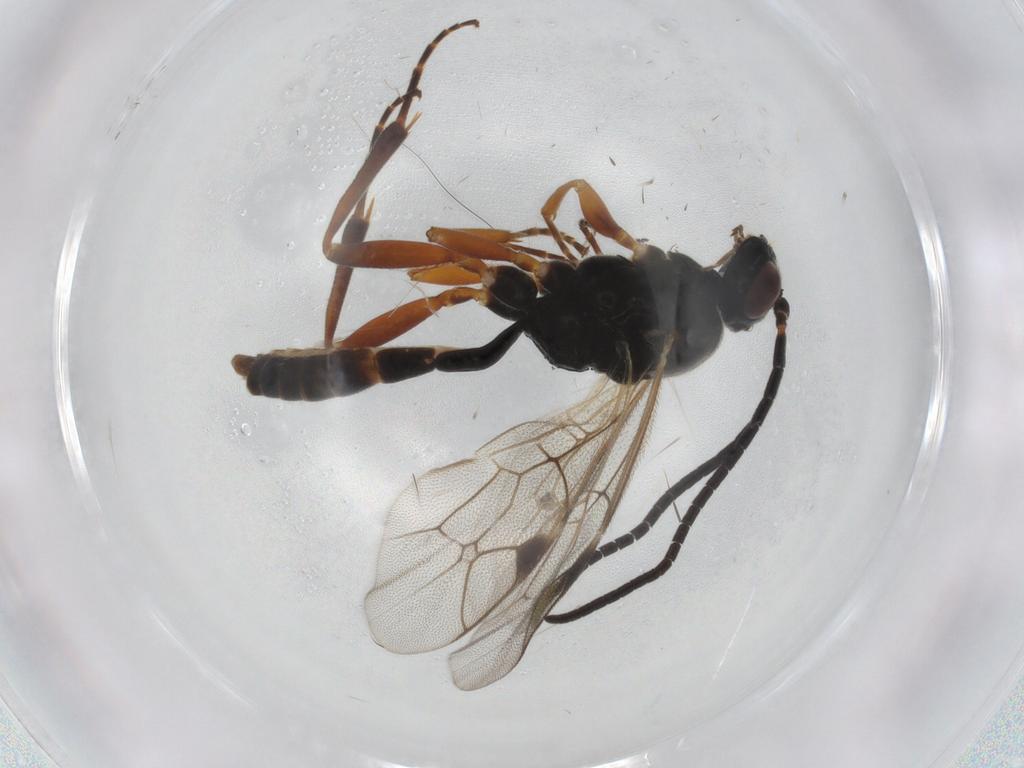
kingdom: Animalia
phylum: Arthropoda
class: Insecta
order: Hymenoptera
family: Ichneumonidae
